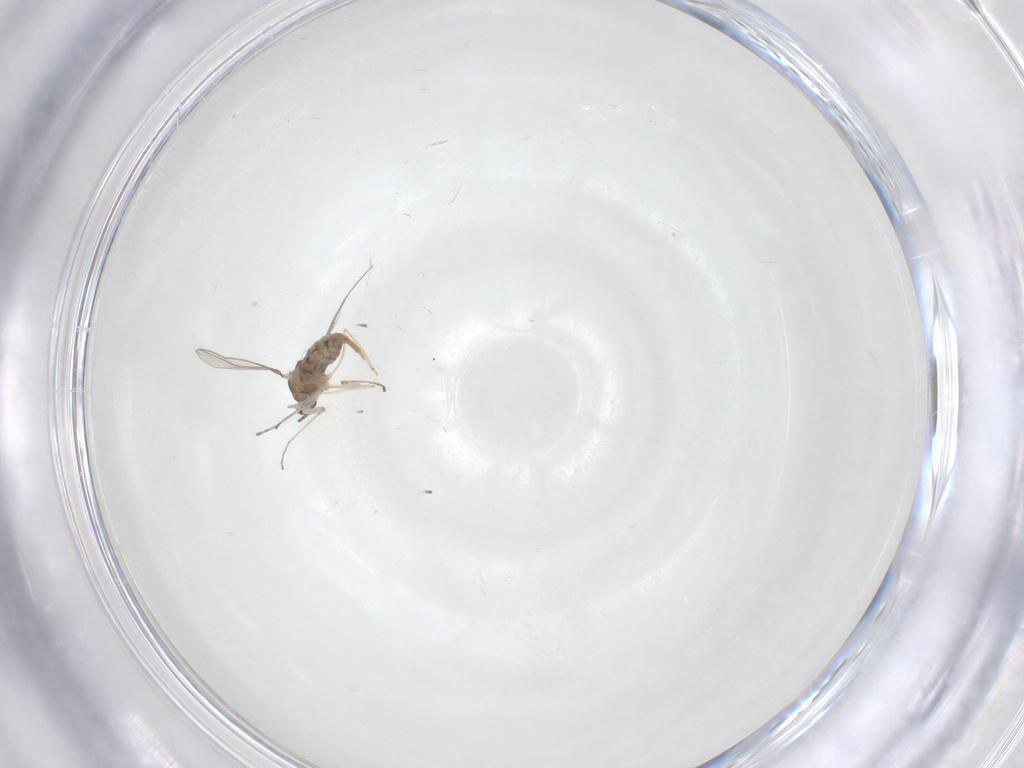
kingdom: Animalia
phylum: Arthropoda
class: Insecta
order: Diptera
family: Cecidomyiidae
